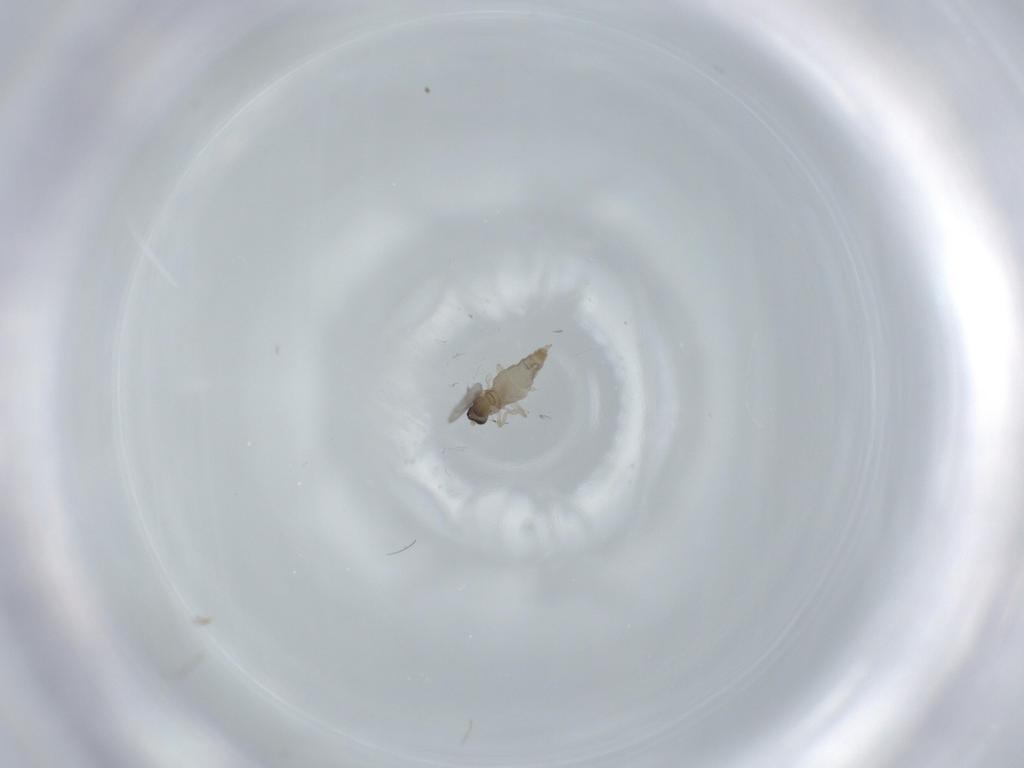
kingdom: Animalia
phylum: Arthropoda
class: Insecta
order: Diptera
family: Cecidomyiidae
